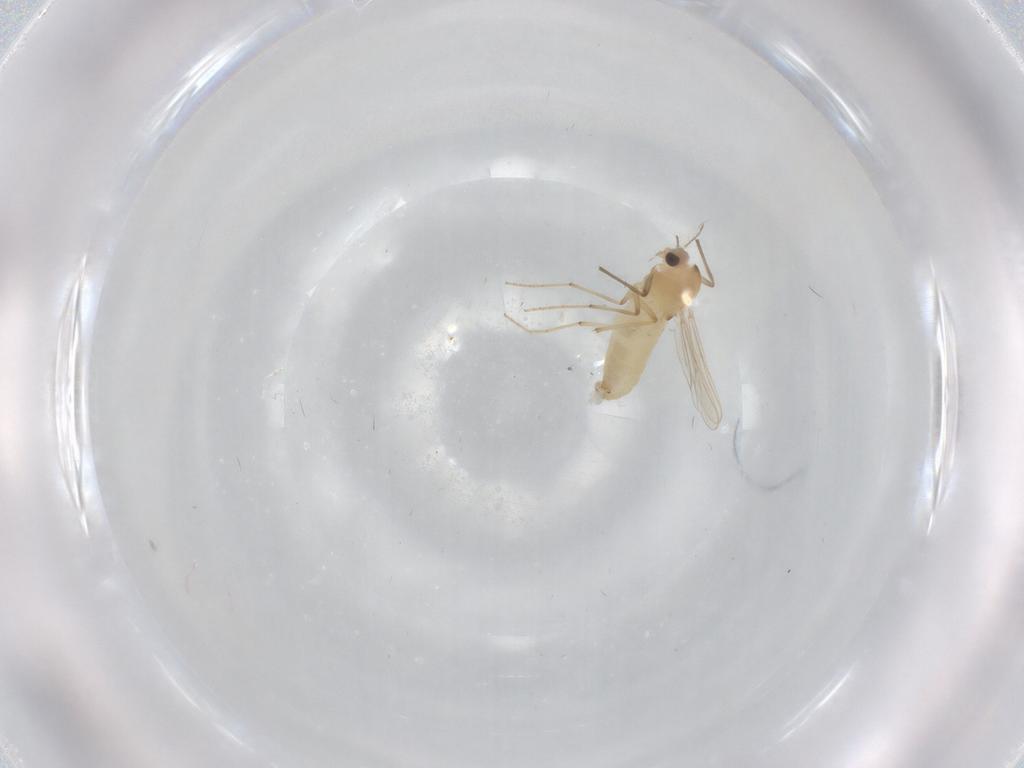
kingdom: Animalia
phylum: Arthropoda
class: Insecta
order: Diptera
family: Chironomidae
